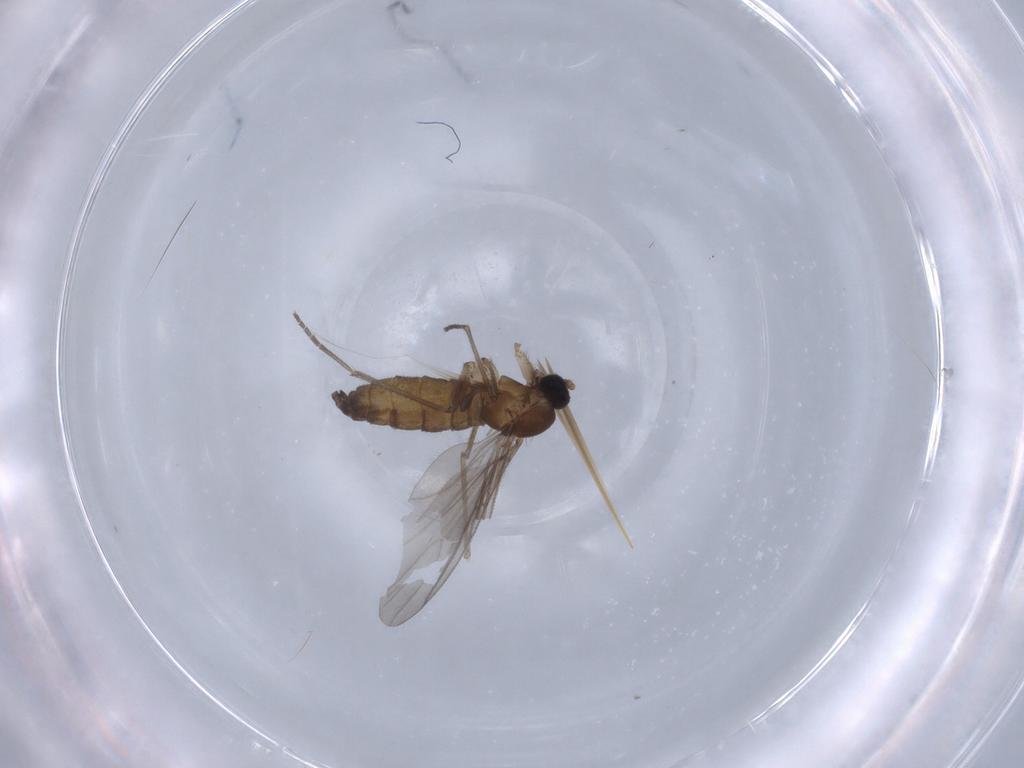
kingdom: Animalia
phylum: Arthropoda
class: Insecta
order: Diptera
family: Sciaridae
